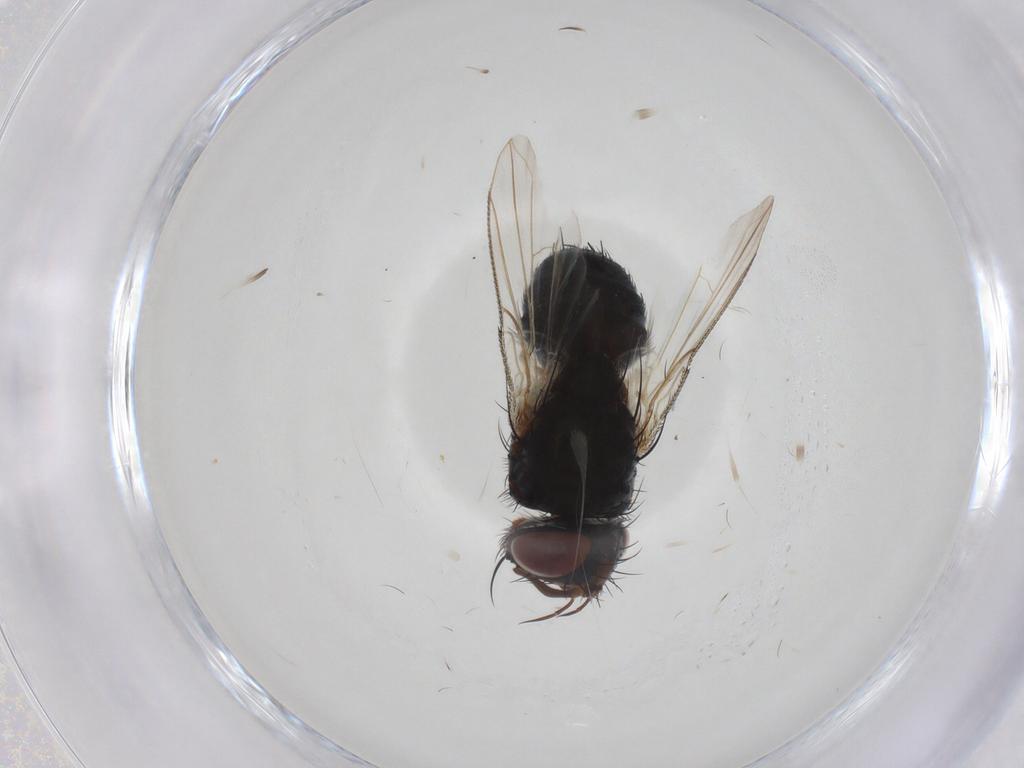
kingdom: Animalia
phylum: Arthropoda
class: Insecta
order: Diptera
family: Tachinidae
